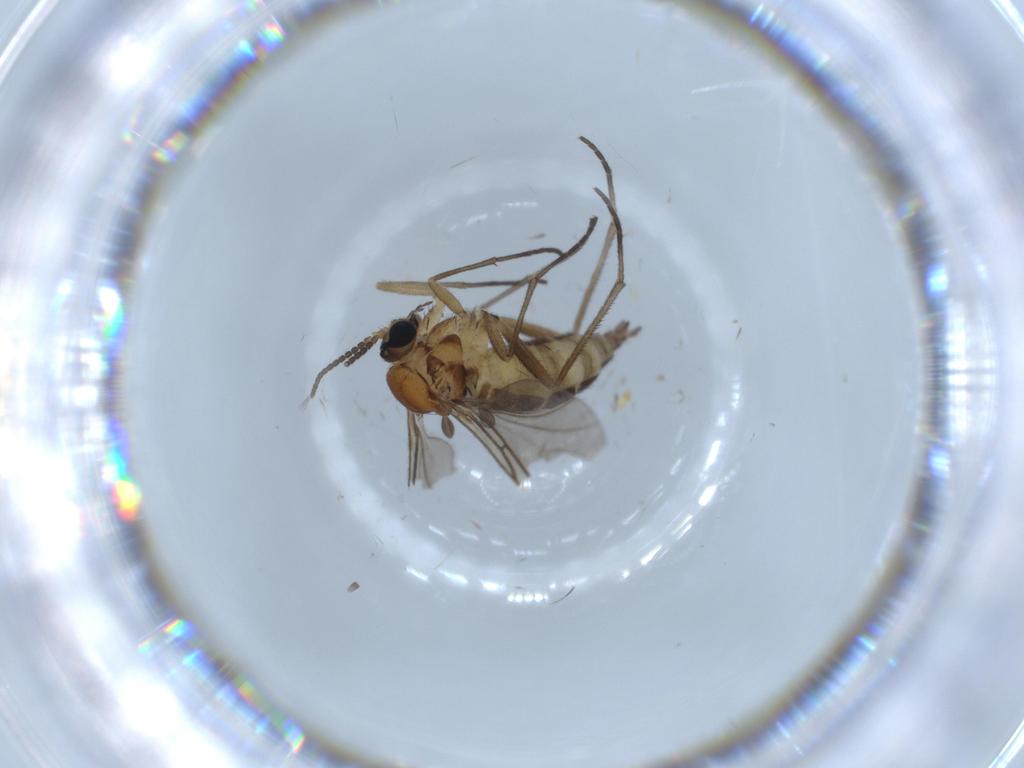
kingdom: Animalia
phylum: Arthropoda
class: Insecta
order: Diptera
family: Sciaridae
